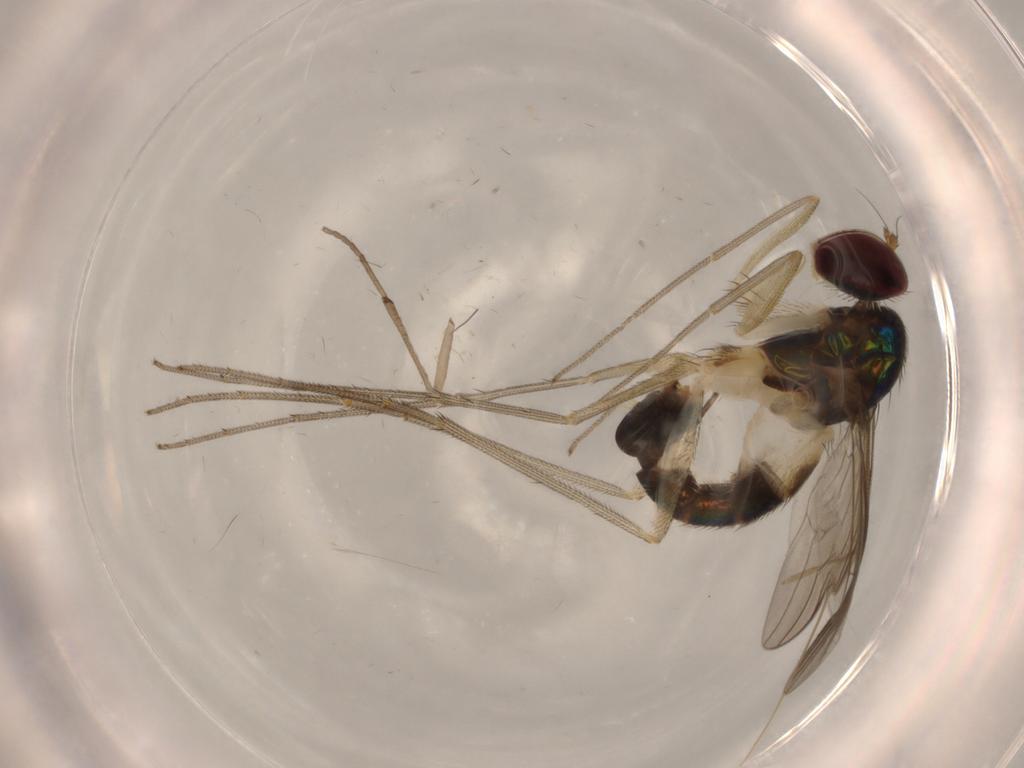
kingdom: Animalia
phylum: Arthropoda
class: Insecta
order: Diptera
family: Psychodidae
